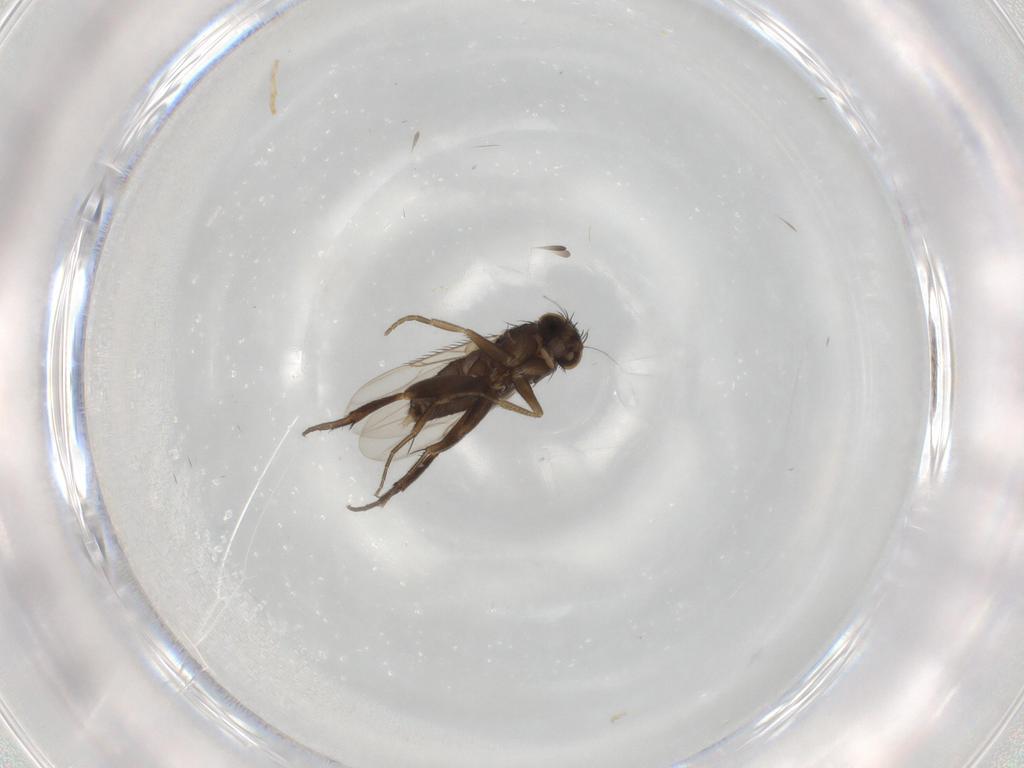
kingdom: Animalia
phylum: Arthropoda
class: Insecta
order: Diptera
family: Phoridae
